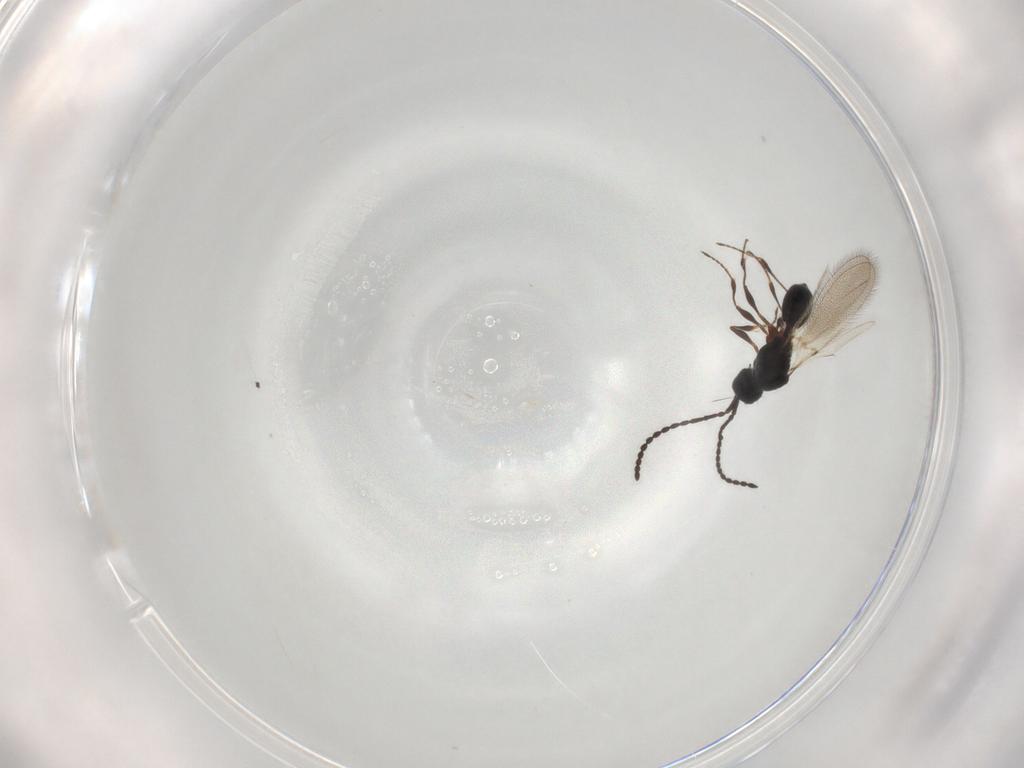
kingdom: Animalia
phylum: Arthropoda
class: Insecta
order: Hymenoptera
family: Diapriidae
